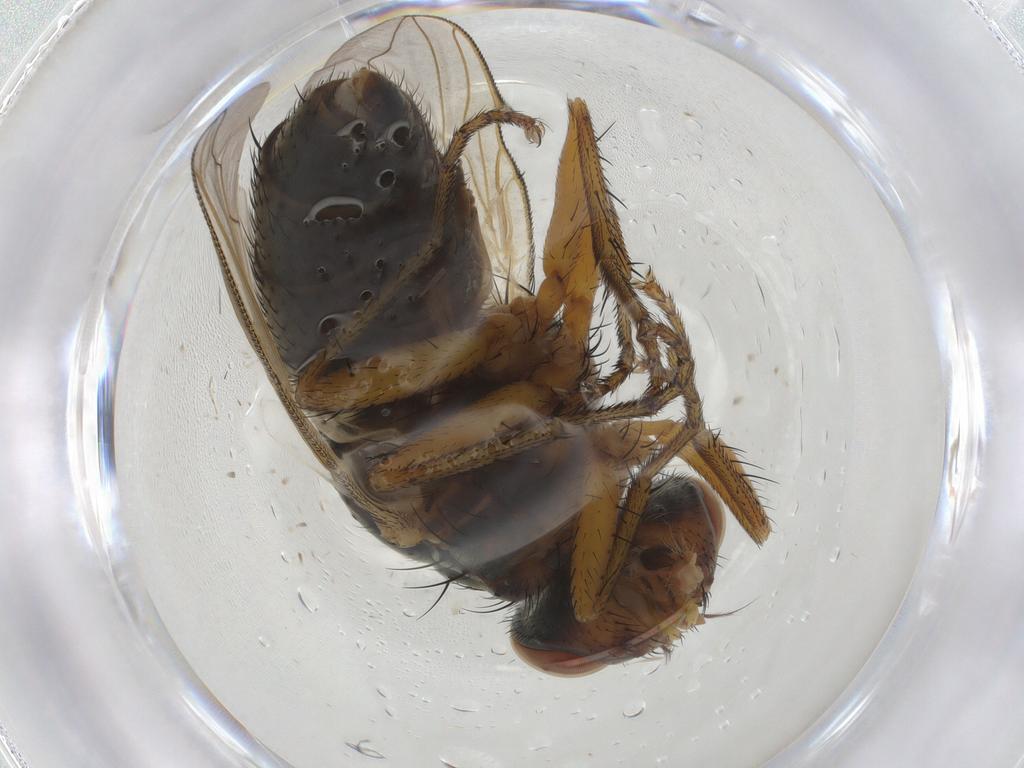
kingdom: Animalia
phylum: Arthropoda
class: Insecta
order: Diptera
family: Sarcophagidae
